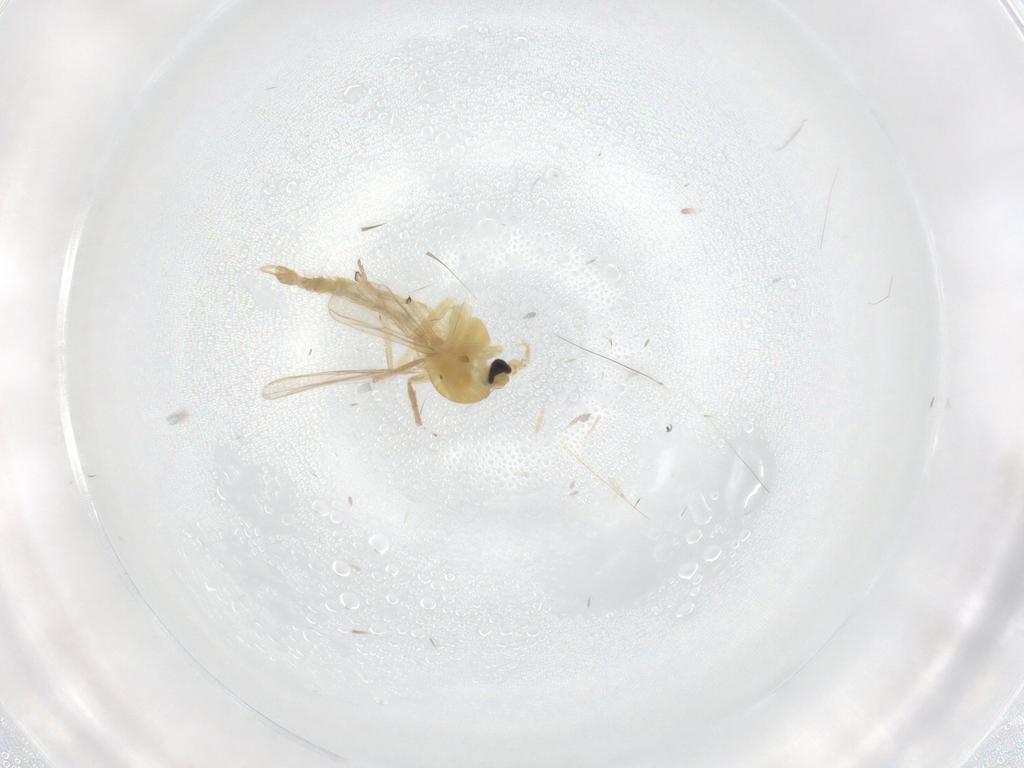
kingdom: Animalia
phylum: Arthropoda
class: Insecta
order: Diptera
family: Chironomidae
